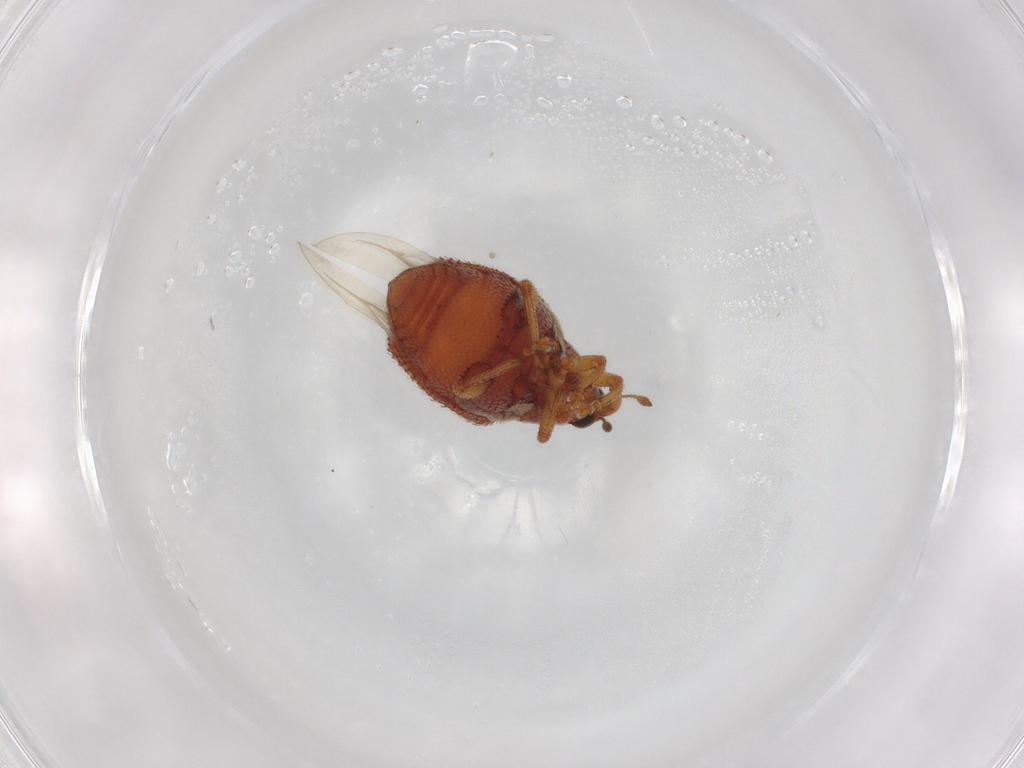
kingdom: Animalia
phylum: Arthropoda
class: Insecta
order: Coleoptera
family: Curculionidae
